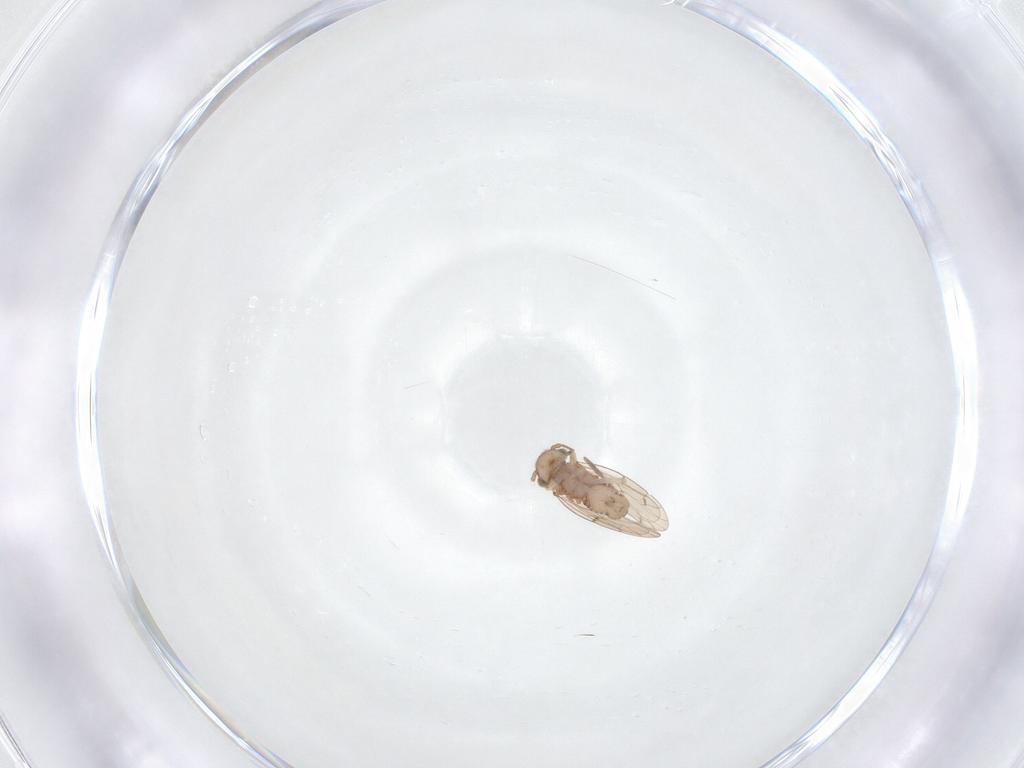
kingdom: Animalia
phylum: Arthropoda
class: Insecta
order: Diptera
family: Psychodidae
